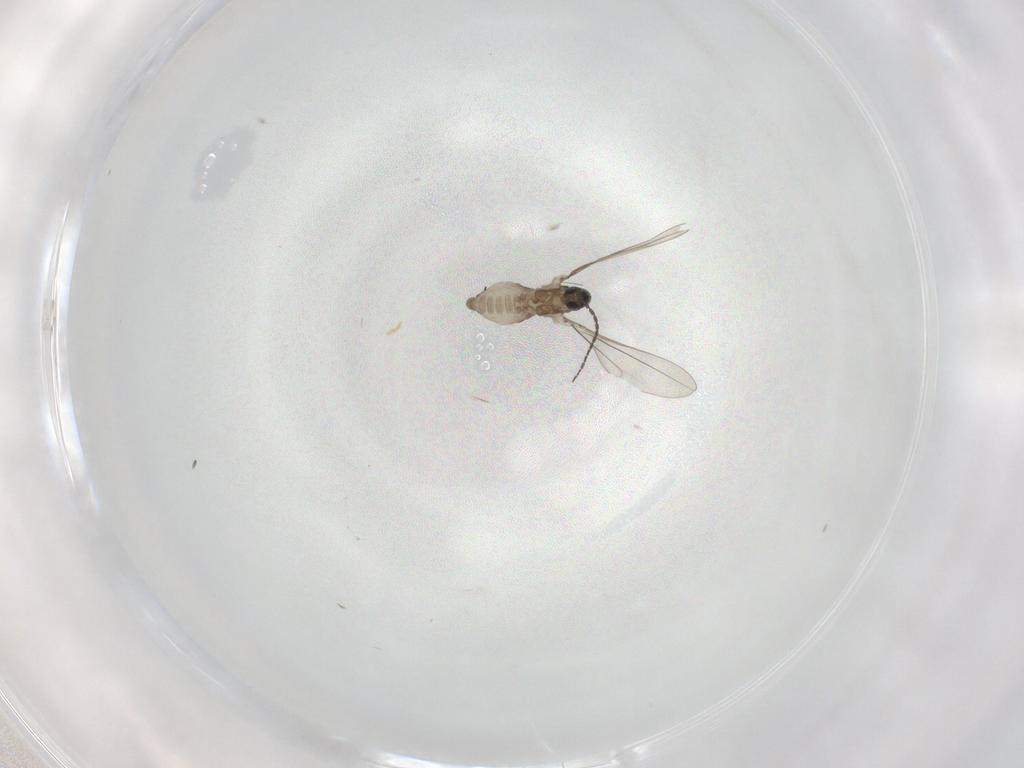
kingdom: Animalia
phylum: Arthropoda
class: Insecta
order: Diptera
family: Cecidomyiidae
